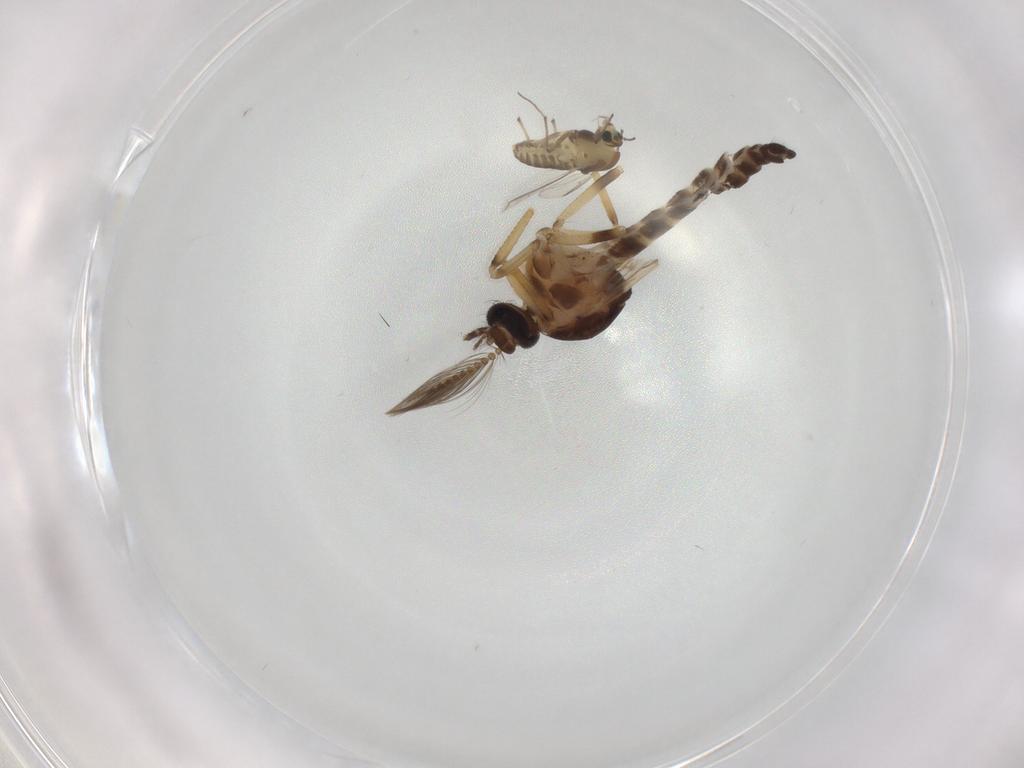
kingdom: Animalia
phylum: Arthropoda
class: Insecta
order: Diptera
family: Ceratopogonidae
